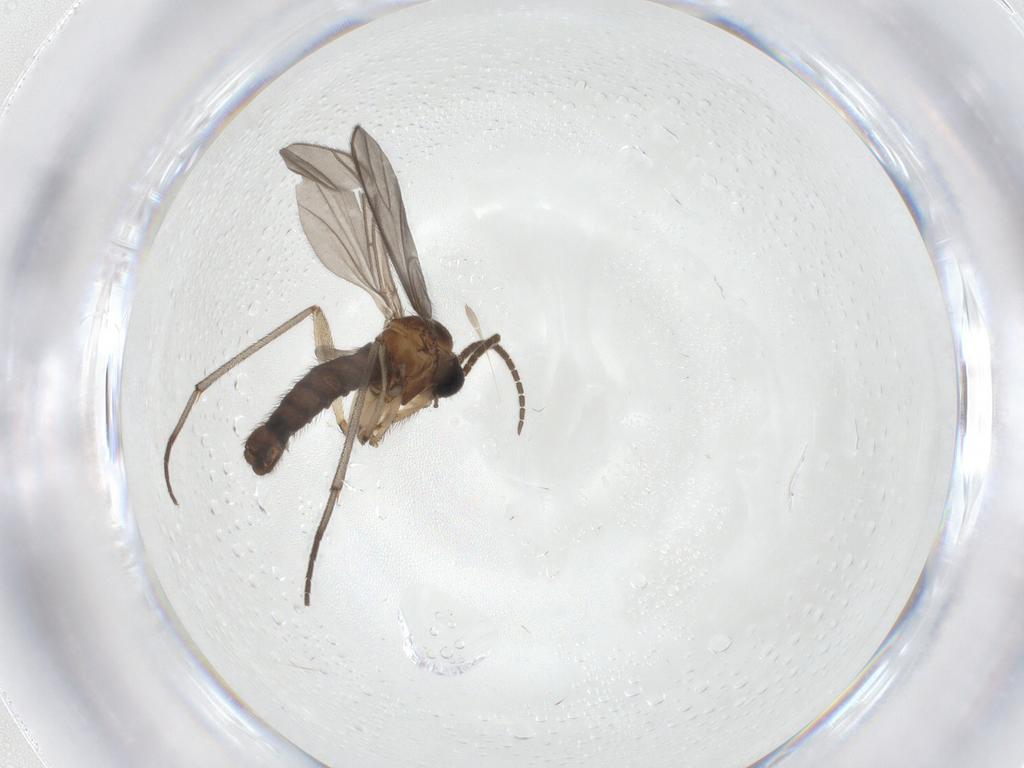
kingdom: Animalia
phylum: Arthropoda
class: Insecta
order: Diptera
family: Sciaridae
